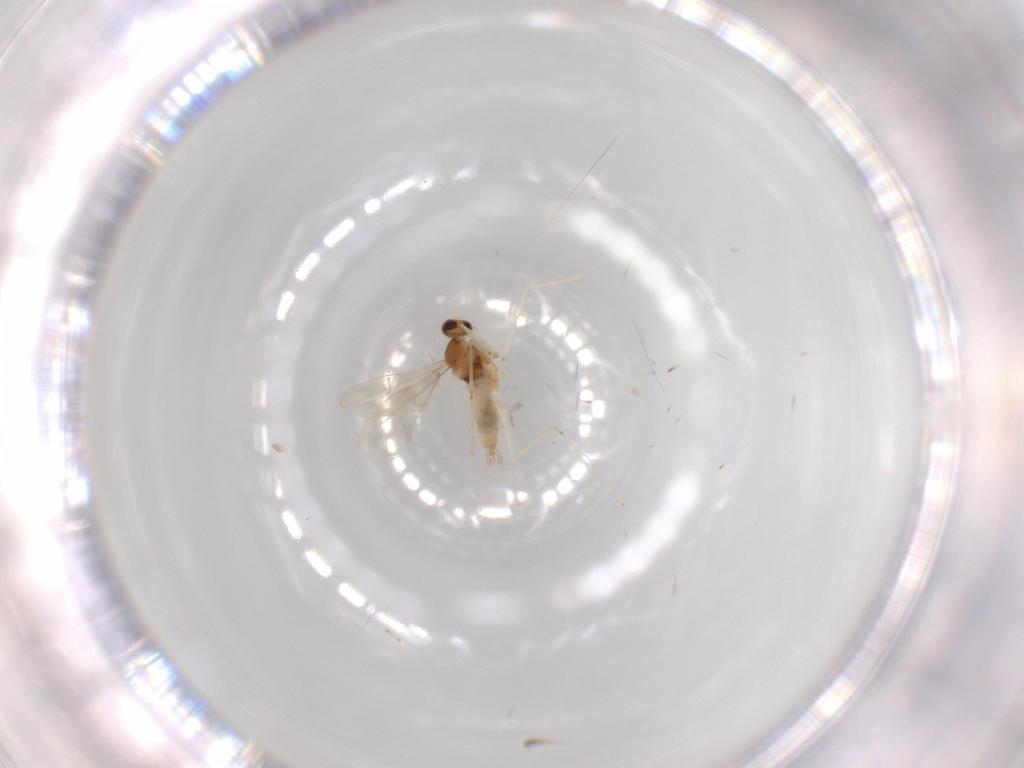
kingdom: Animalia
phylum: Arthropoda
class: Insecta
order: Diptera
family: Cecidomyiidae
